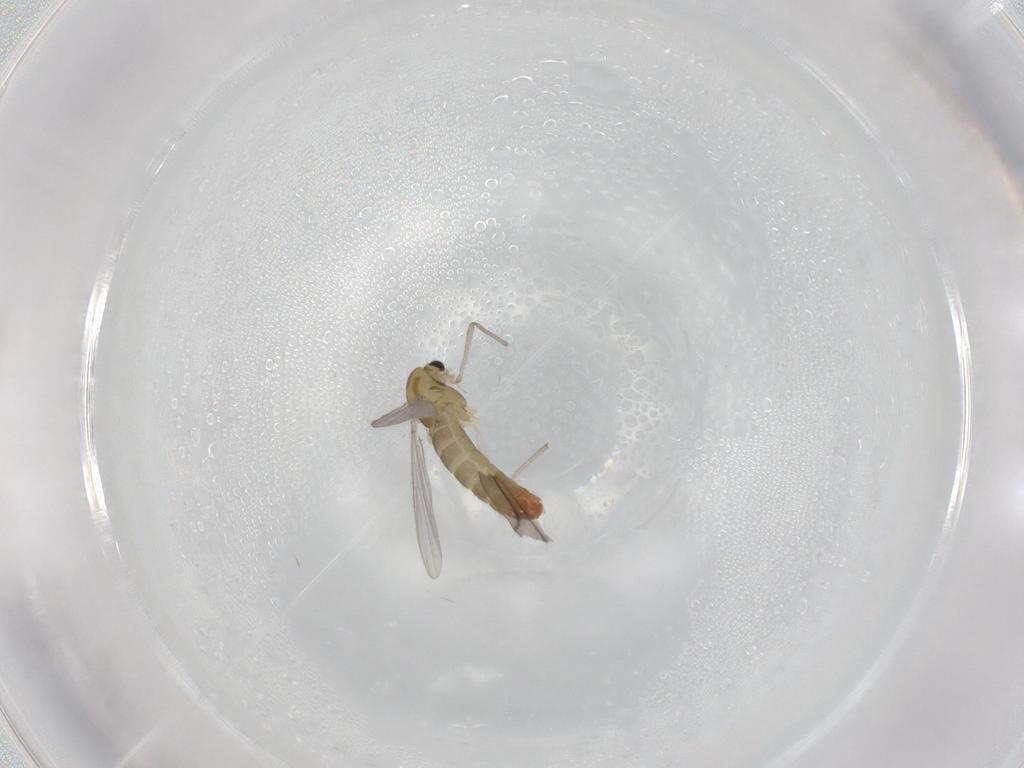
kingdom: Animalia
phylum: Arthropoda
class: Insecta
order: Diptera
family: Chironomidae
